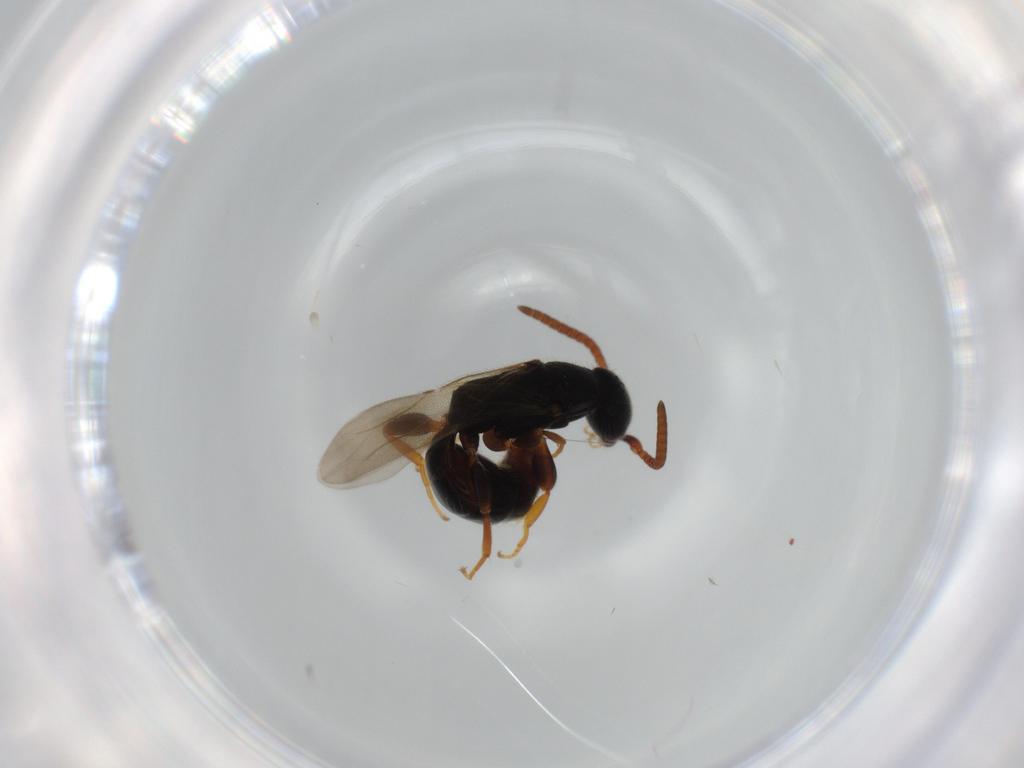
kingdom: Animalia
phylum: Arthropoda
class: Insecta
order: Hymenoptera
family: Bethylidae
